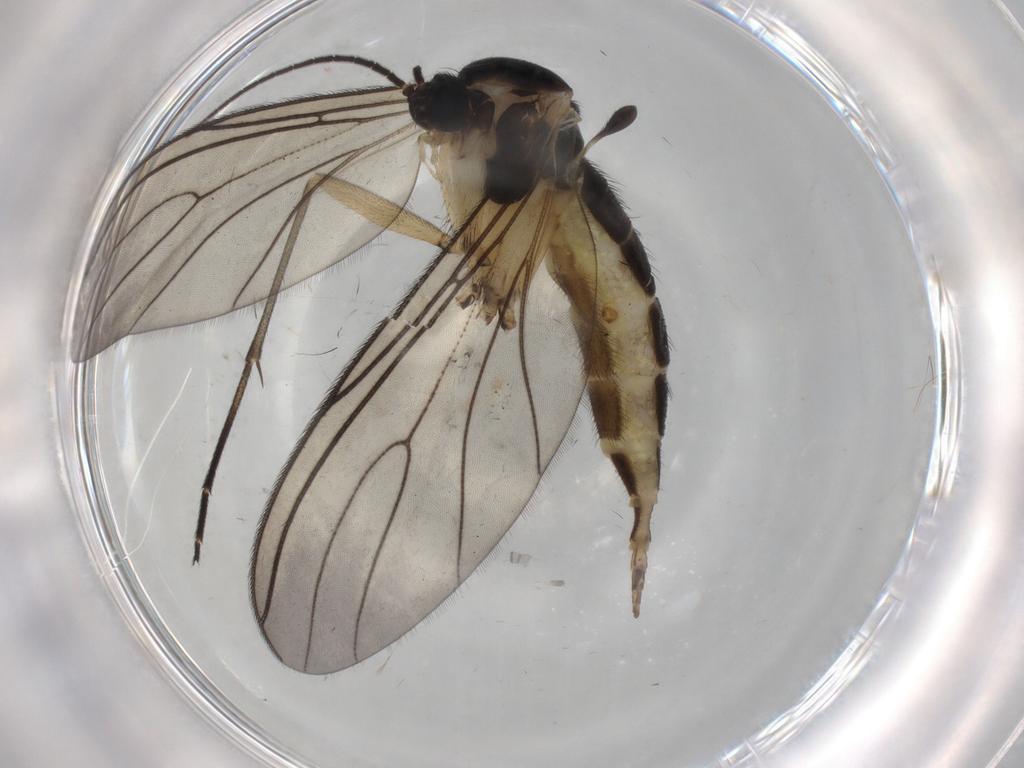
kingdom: Animalia
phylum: Arthropoda
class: Insecta
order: Diptera
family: Sciaridae
